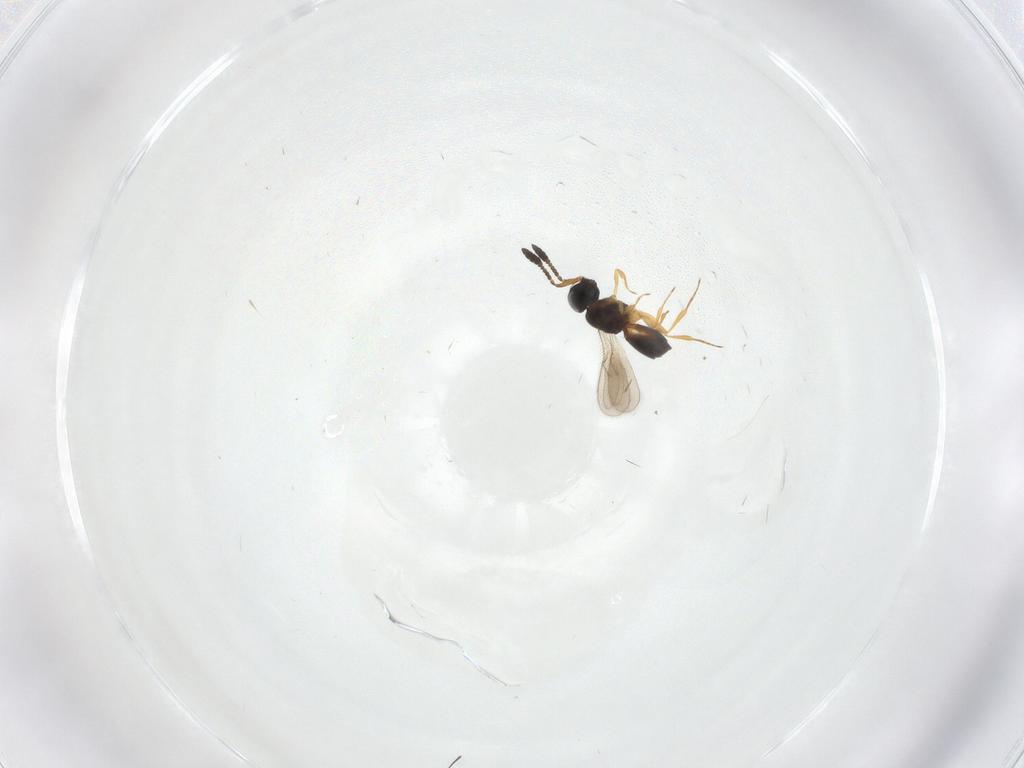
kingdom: Animalia
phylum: Arthropoda
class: Insecta
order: Hymenoptera
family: Scelionidae
